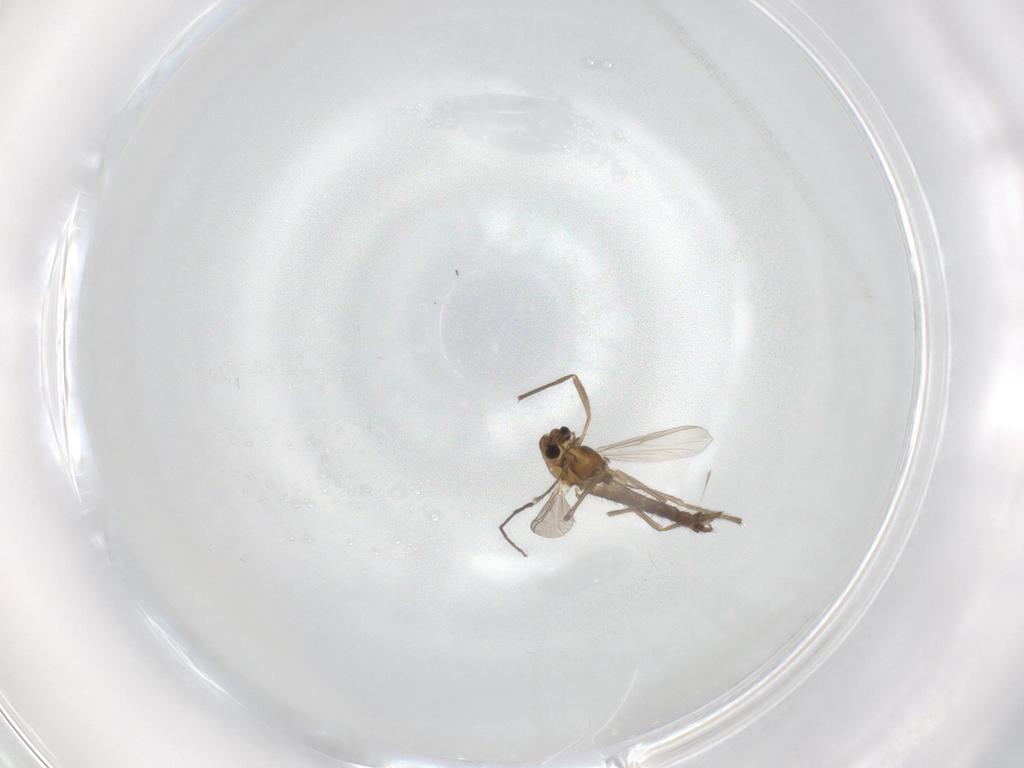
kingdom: Animalia
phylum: Arthropoda
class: Insecta
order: Diptera
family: Chironomidae
